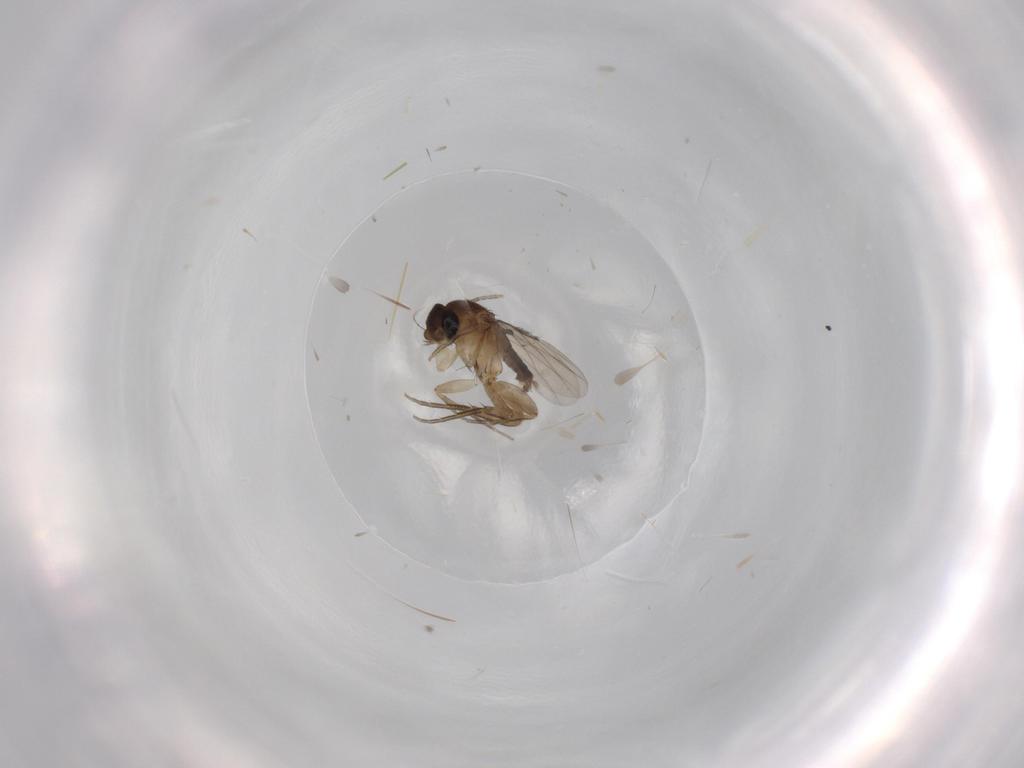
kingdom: Animalia
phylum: Arthropoda
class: Insecta
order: Diptera
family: Phoridae
